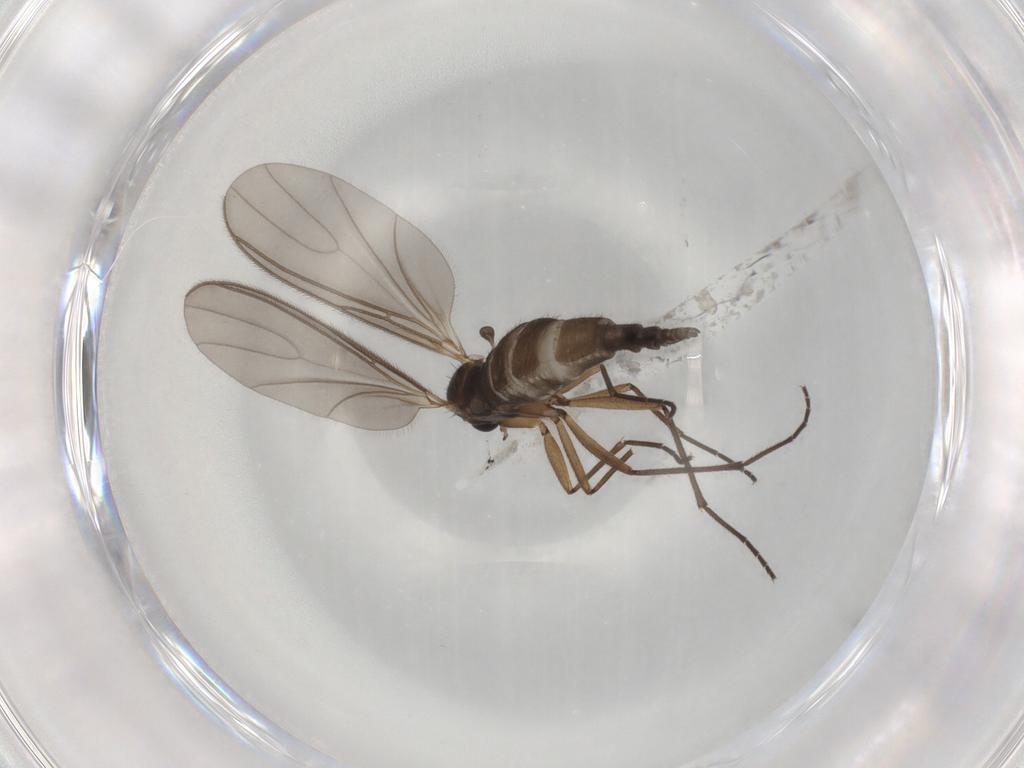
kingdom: Animalia
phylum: Arthropoda
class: Insecta
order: Diptera
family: Sciaridae
